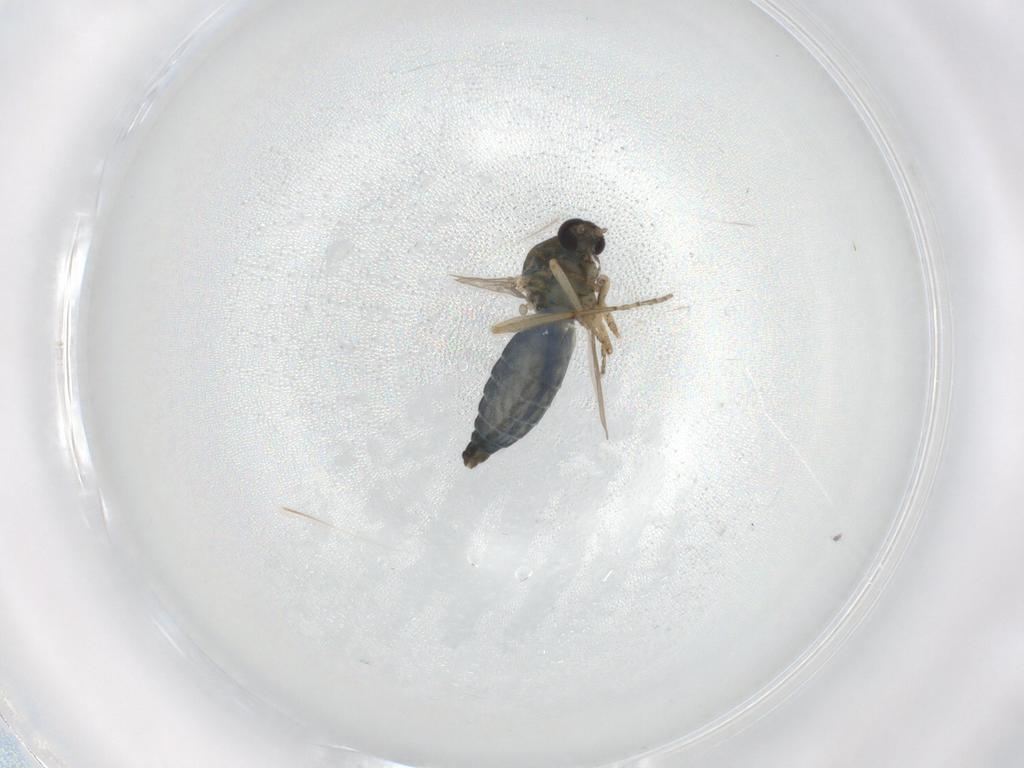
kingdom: Animalia
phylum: Arthropoda
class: Insecta
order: Diptera
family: Ceratopogonidae
